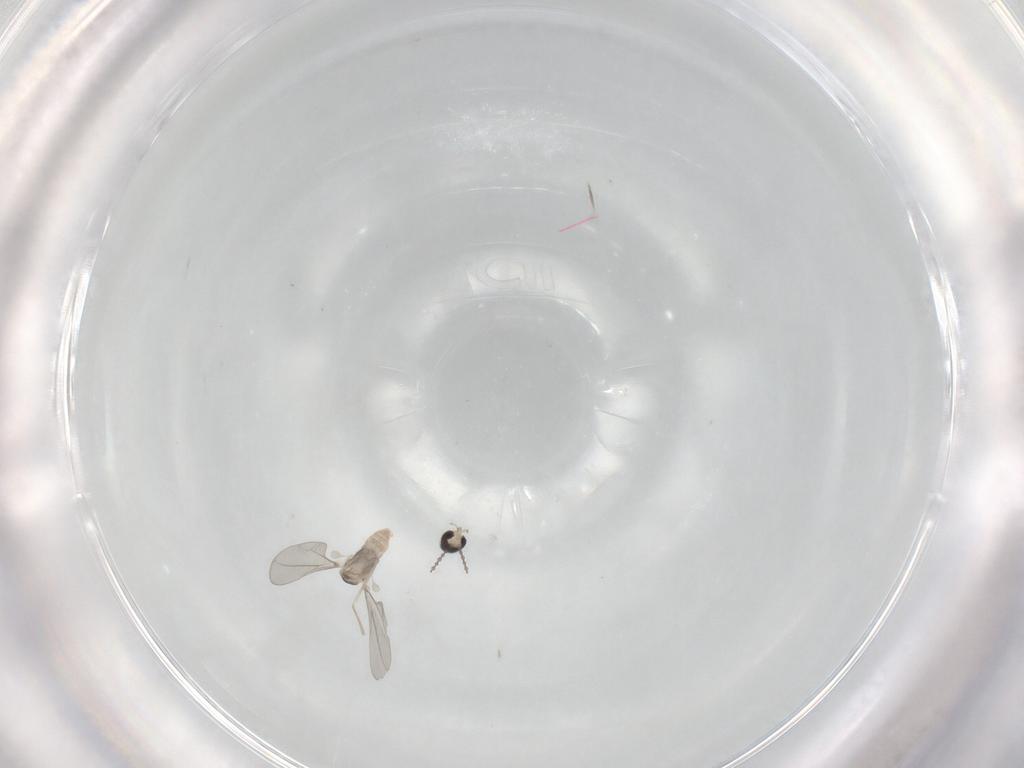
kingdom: Animalia
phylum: Arthropoda
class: Insecta
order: Diptera
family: Cecidomyiidae
